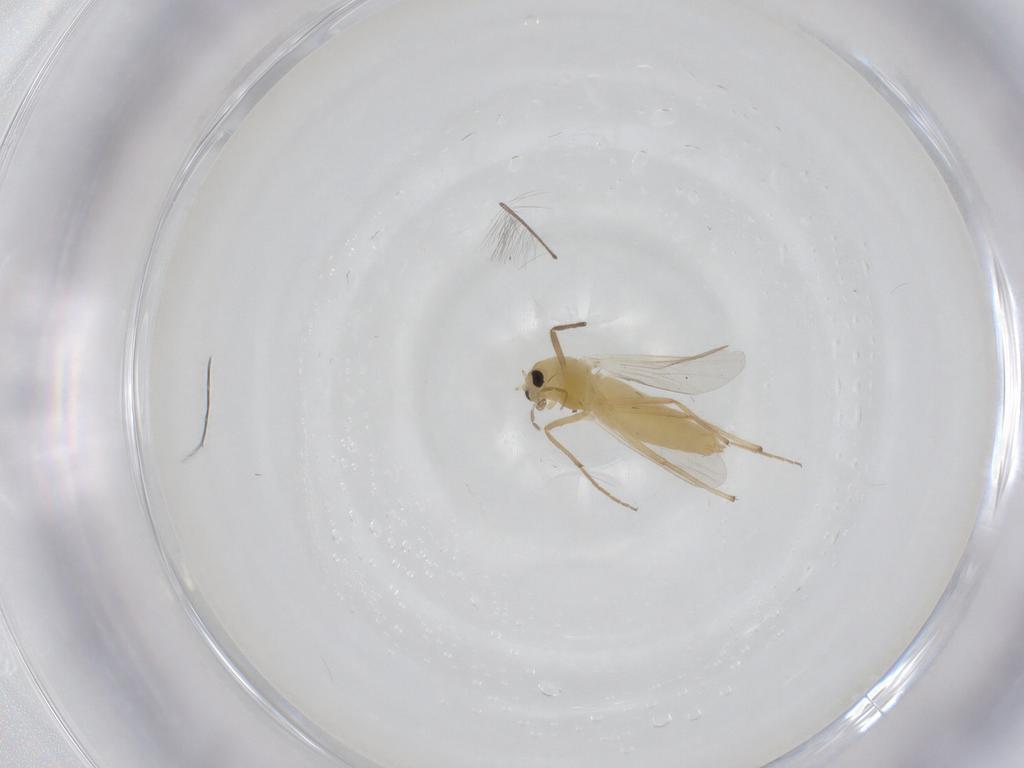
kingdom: Animalia
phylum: Arthropoda
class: Insecta
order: Diptera
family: Chironomidae
